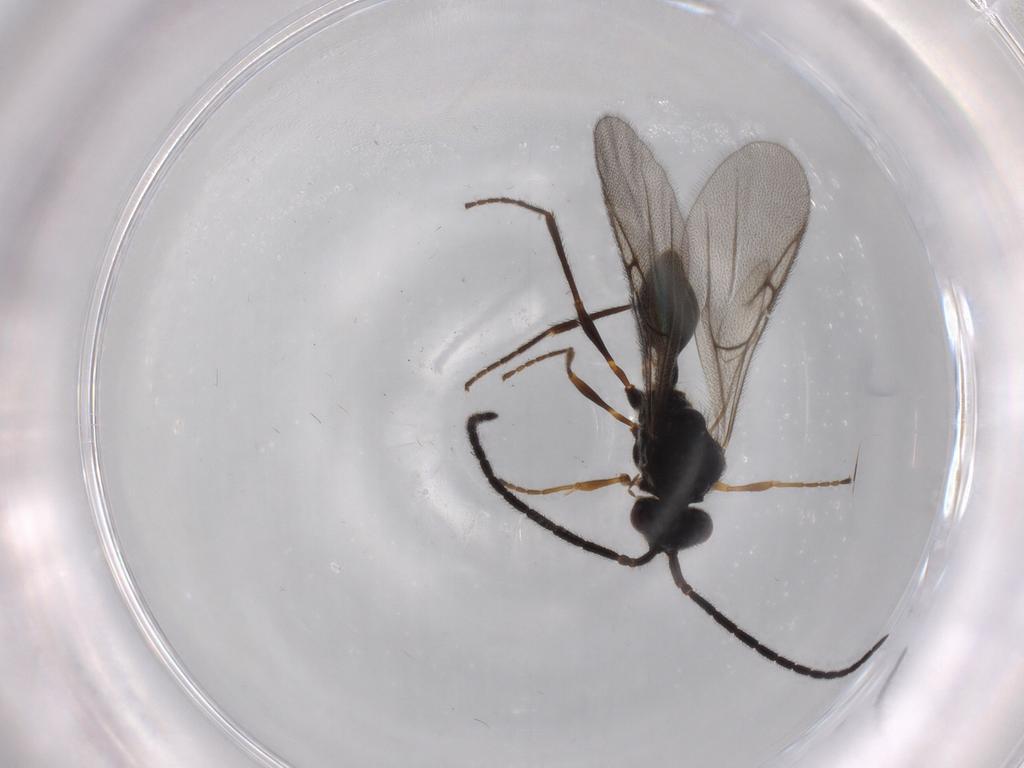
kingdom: Animalia
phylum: Arthropoda
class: Insecta
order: Hymenoptera
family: Diapriidae
